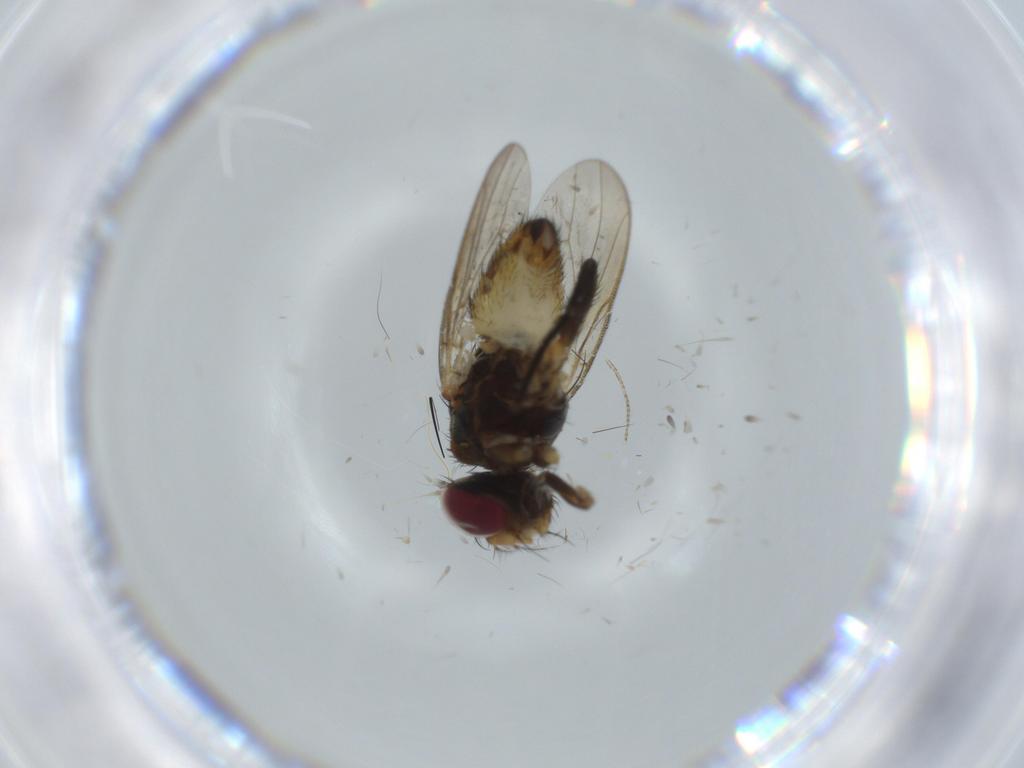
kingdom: Animalia
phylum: Arthropoda
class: Insecta
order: Diptera
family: Anthomyiidae
